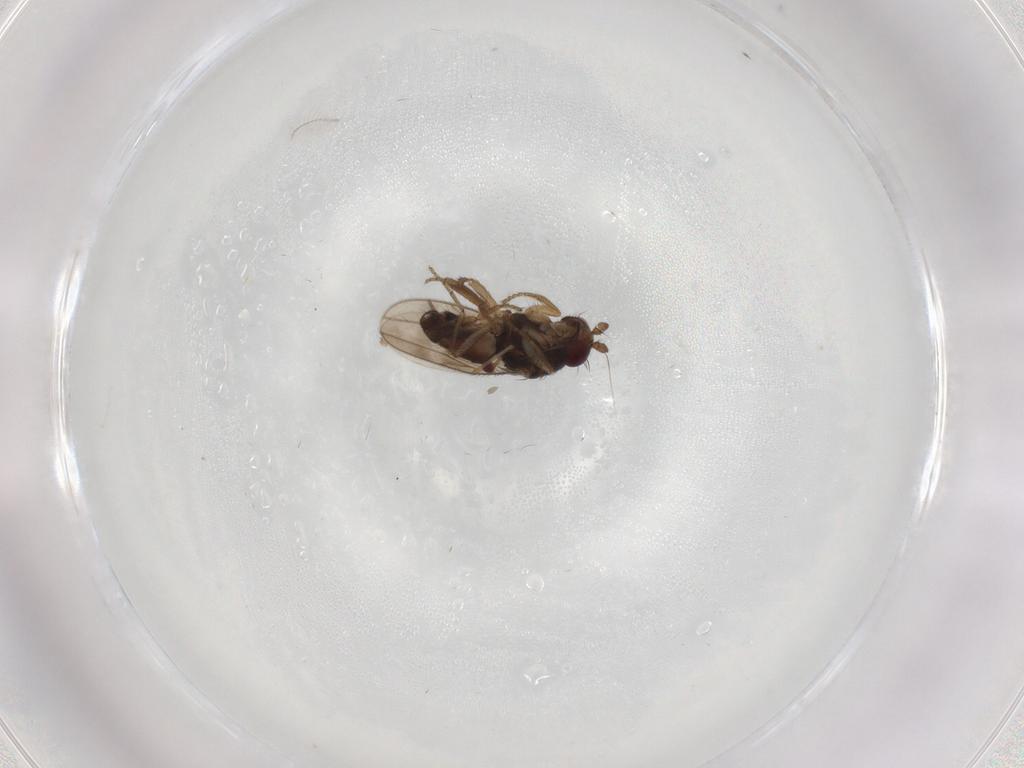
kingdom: Animalia
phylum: Arthropoda
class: Insecta
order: Diptera
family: Sphaeroceridae
